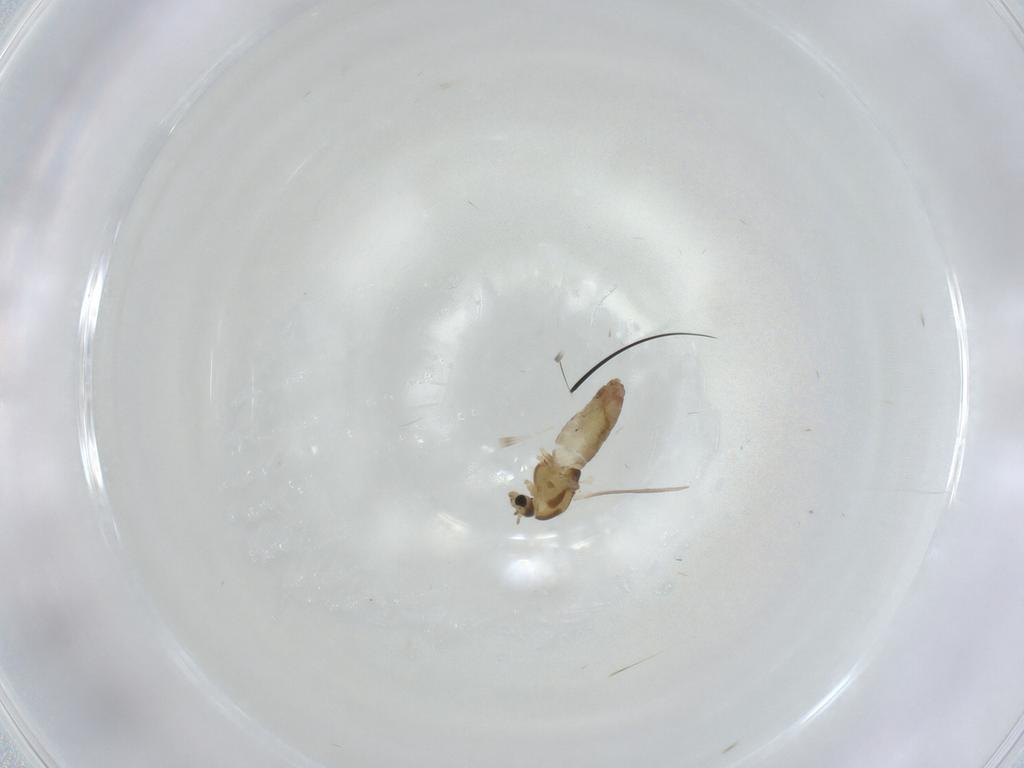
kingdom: Animalia
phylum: Arthropoda
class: Insecta
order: Diptera
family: Chironomidae
